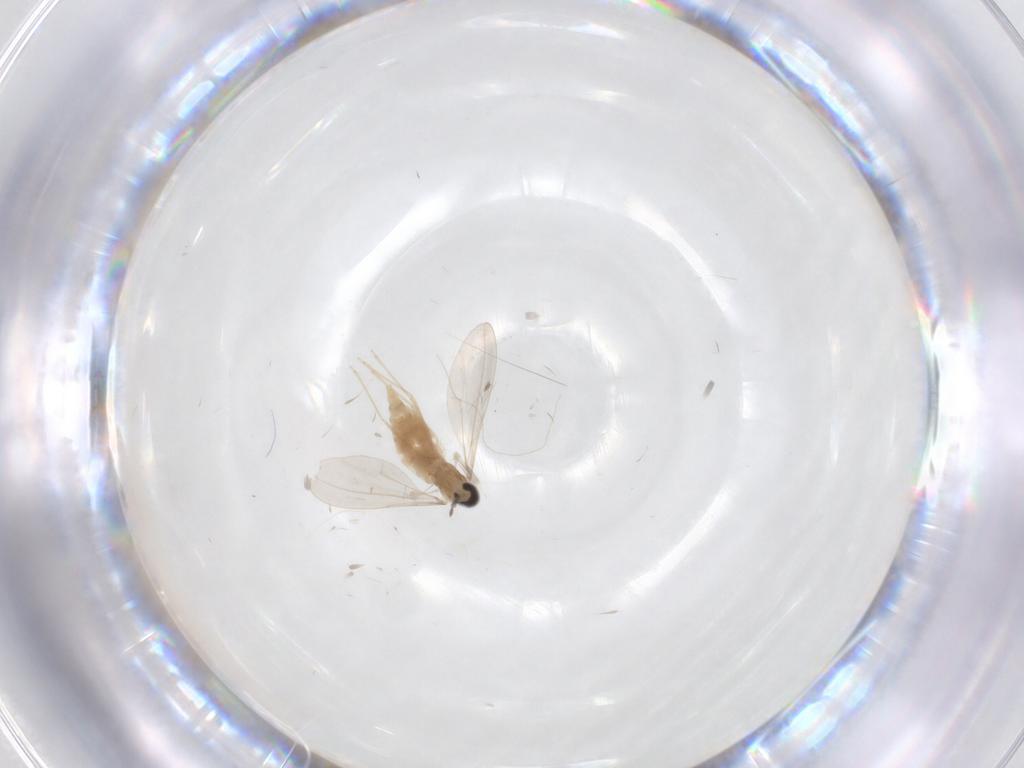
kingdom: Animalia
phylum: Arthropoda
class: Insecta
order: Diptera
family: Cecidomyiidae
